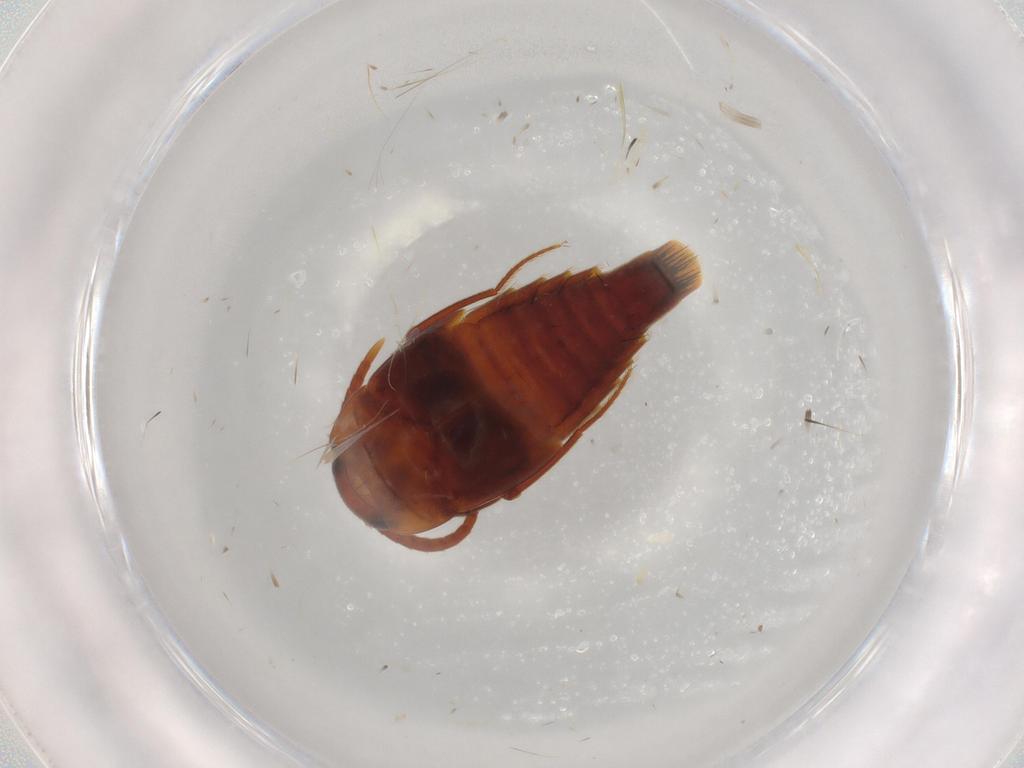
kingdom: Animalia
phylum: Arthropoda
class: Insecta
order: Coleoptera
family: Staphylinidae
